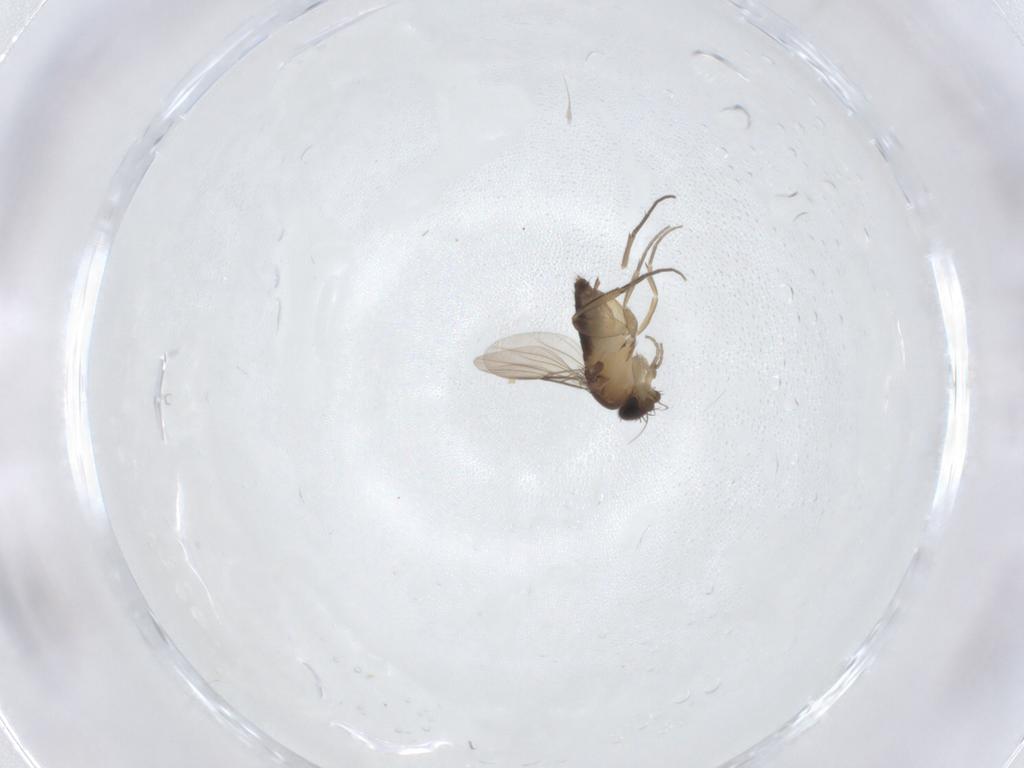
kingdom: Animalia
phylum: Arthropoda
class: Insecta
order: Diptera
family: Phoridae
